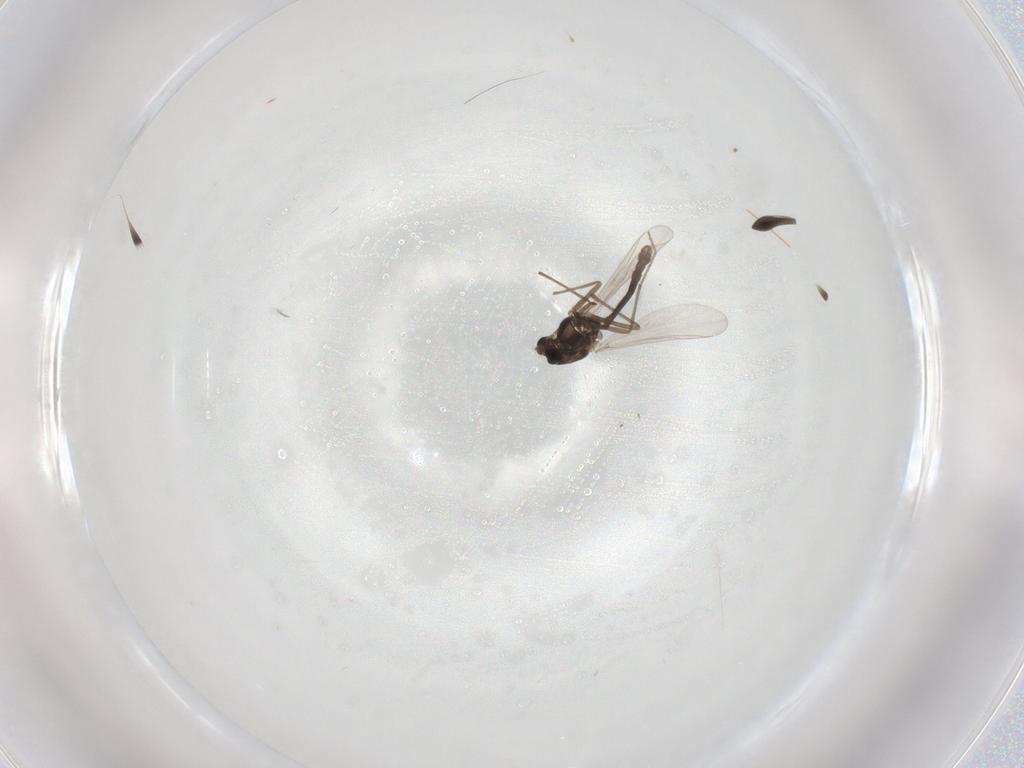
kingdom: Animalia
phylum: Arthropoda
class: Insecta
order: Diptera
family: Chironomidae
